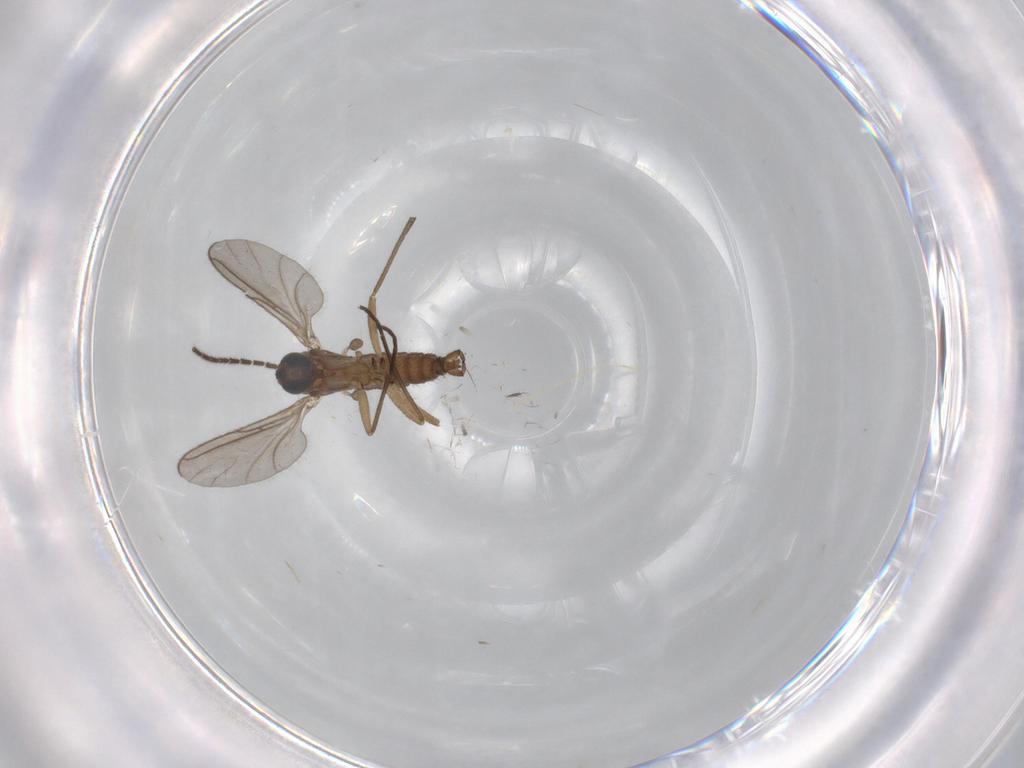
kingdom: Animalia
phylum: Arthropoda
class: Insecta
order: Diptera
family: Sciaridae
